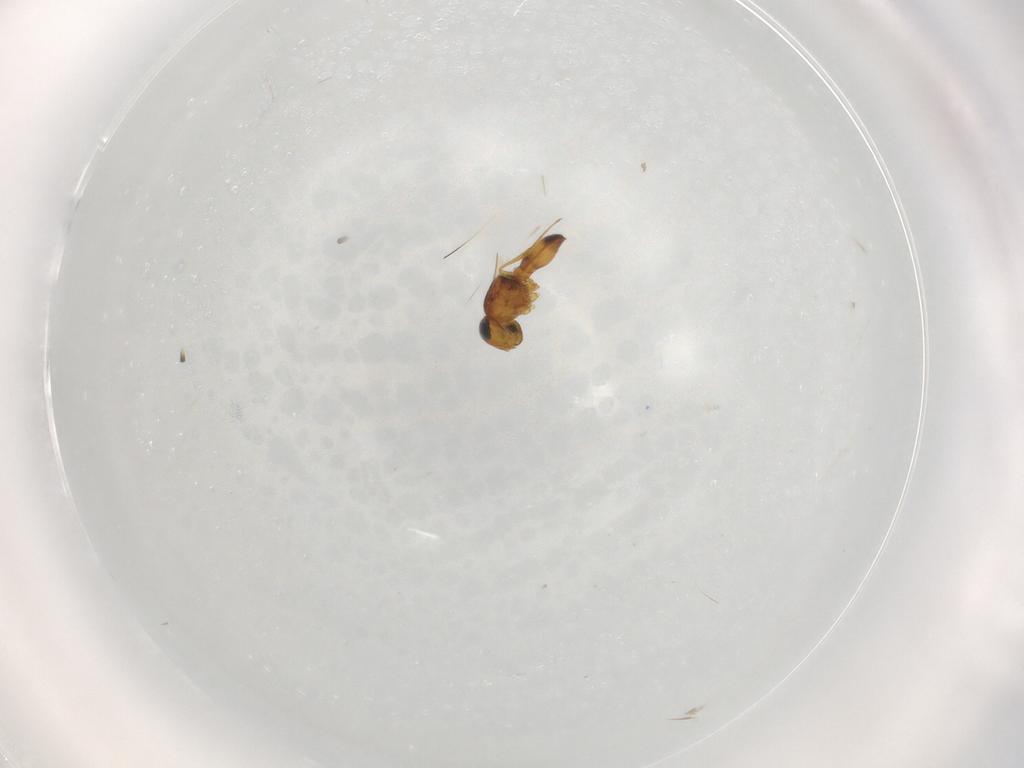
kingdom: Animalia
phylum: Arthropoda
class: Insecta
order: Hymenoptera
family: Scelionidae
